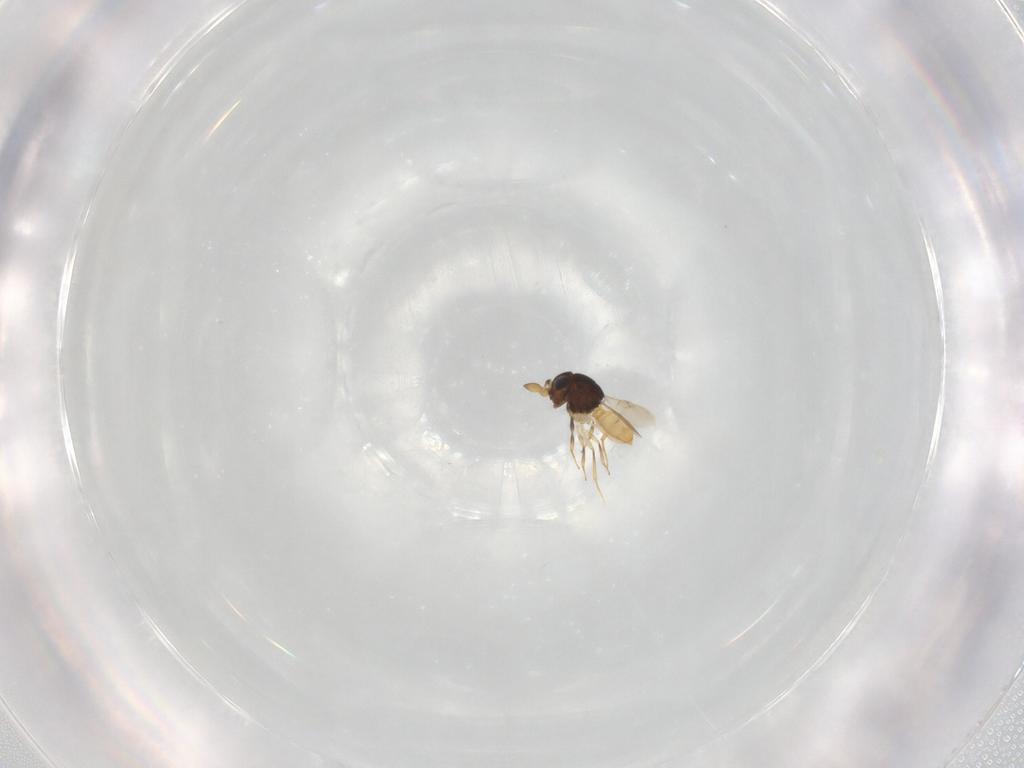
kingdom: Animalia
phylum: Arthropoda
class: Insecta
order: Hymenoptera
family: Scelionidae
